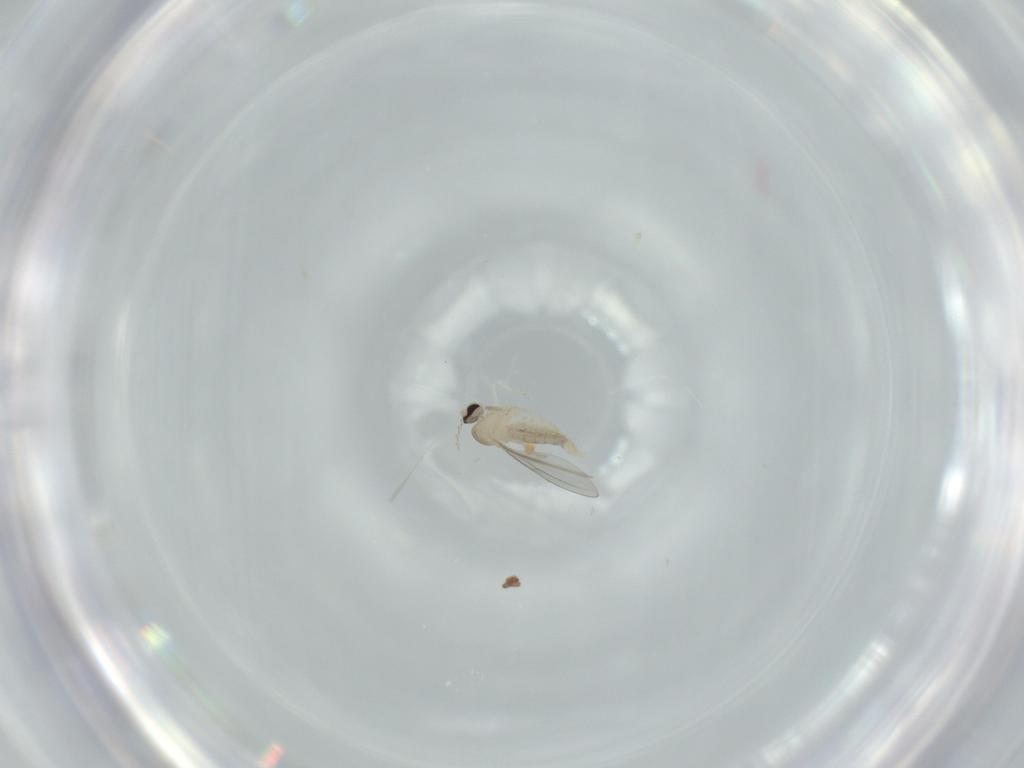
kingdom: Animalia
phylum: Arthropoda
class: Insecta
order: Diptera
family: Cecidomyiidae
